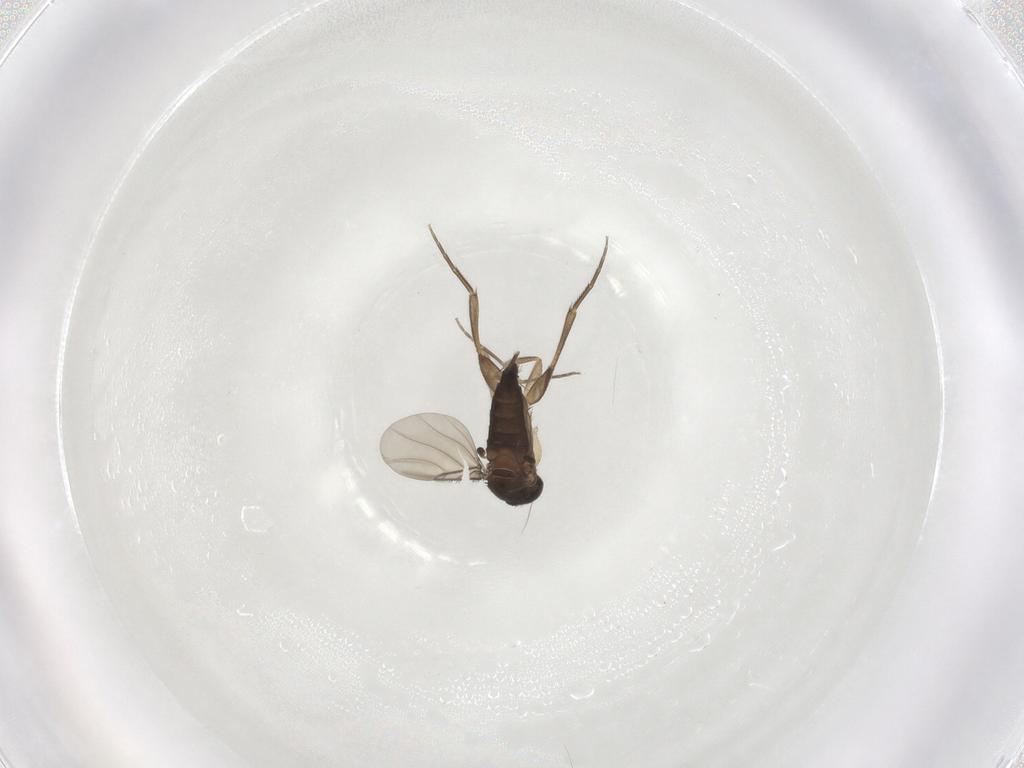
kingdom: Animalia
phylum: Arthropoda
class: Insecta
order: Diptera
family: Phoridae
